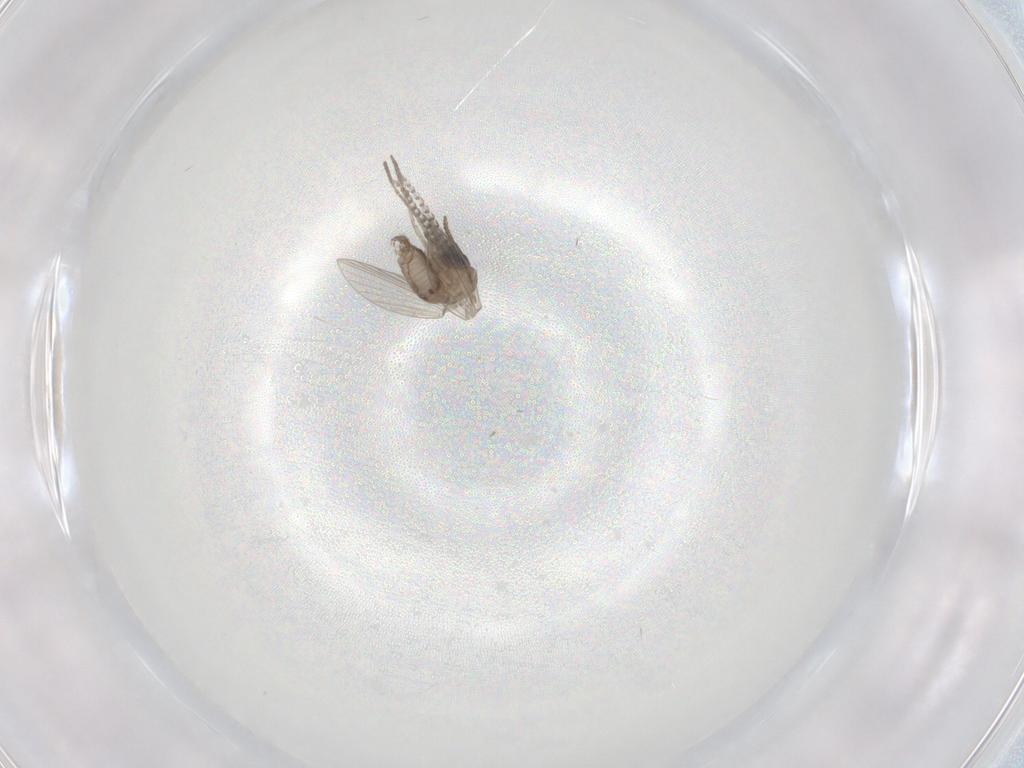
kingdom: Animalia
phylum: Arthropoda
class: Insecta
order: Diptera
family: Psychodidae
